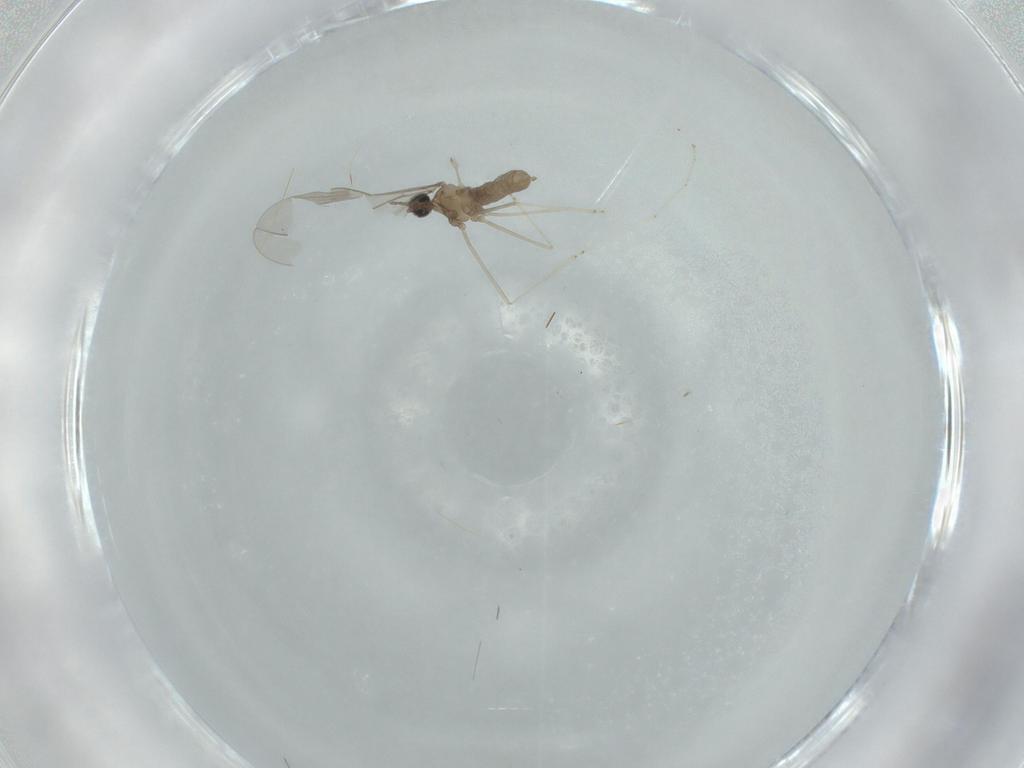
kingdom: Animalia
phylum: Arthropoda
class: Insecta
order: Diptera
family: Cecidomyiidae
